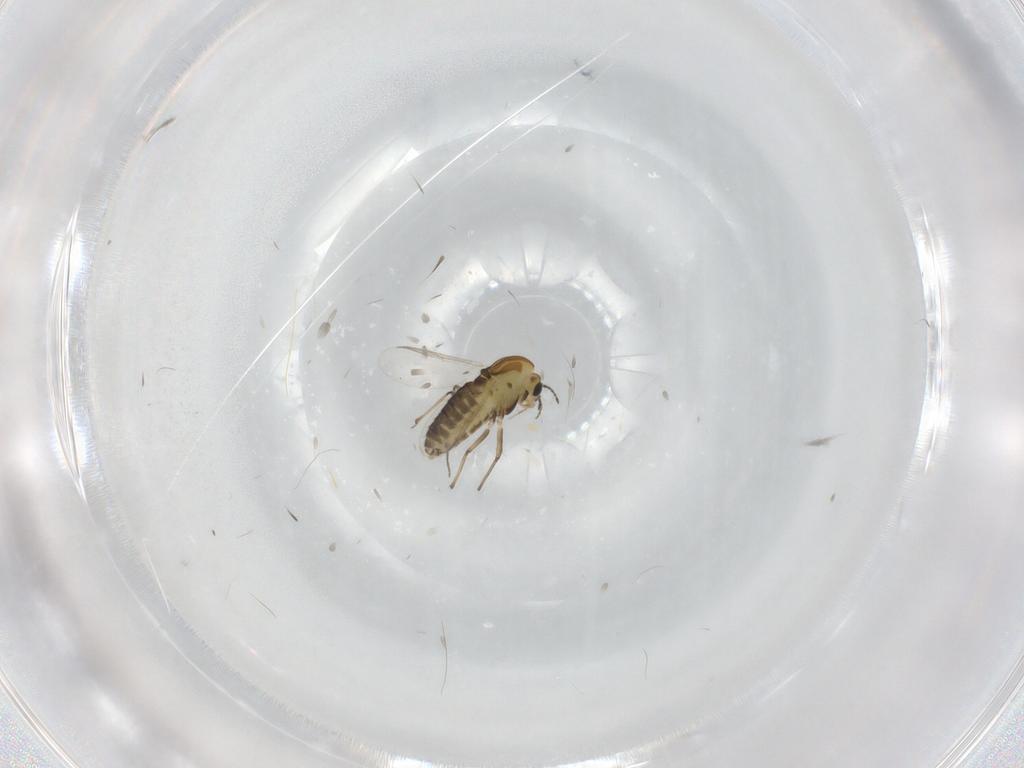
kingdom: Animalia
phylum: Arthropoda
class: Insecta
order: Diptera
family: Chironomidae
